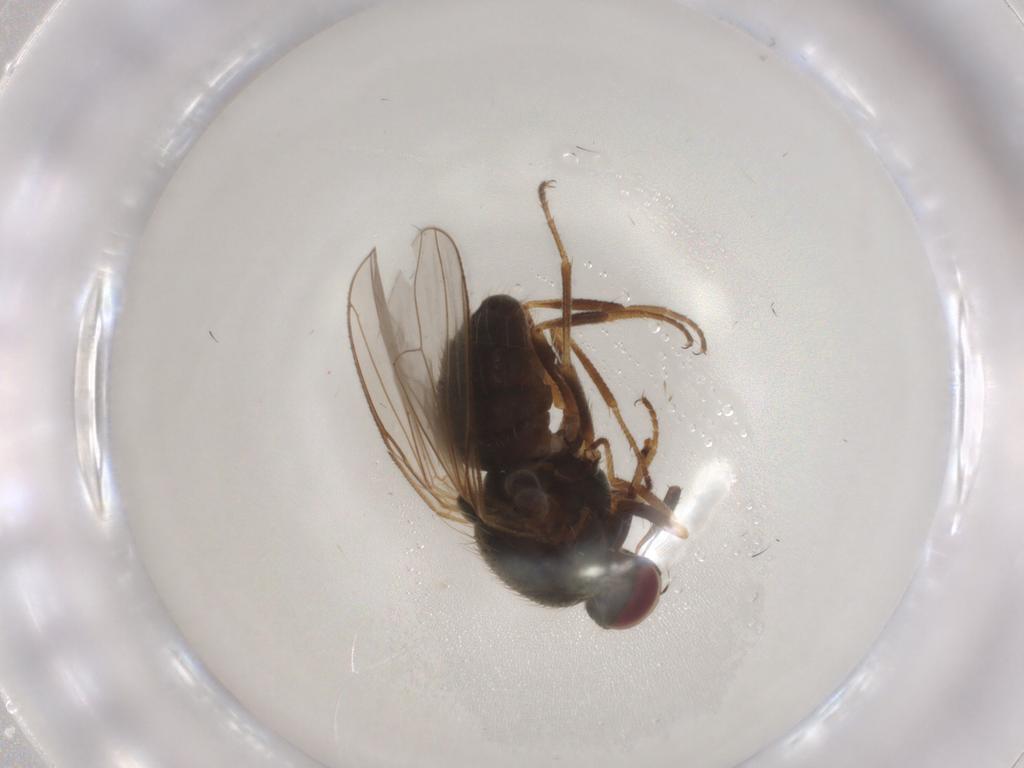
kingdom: Animalia
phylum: Arthropoda
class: Insecta
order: Diptera
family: Muscidae
